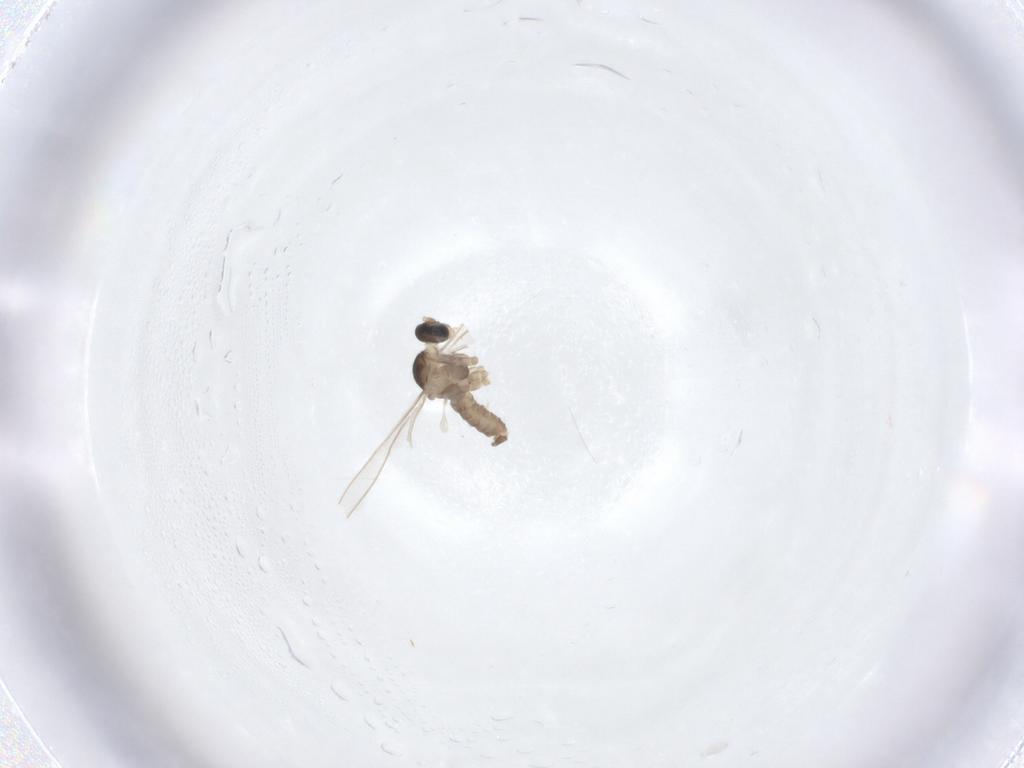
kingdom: Animalia
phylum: Arthropoda
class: Insecta
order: Diptera
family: Cecidomyiidae
